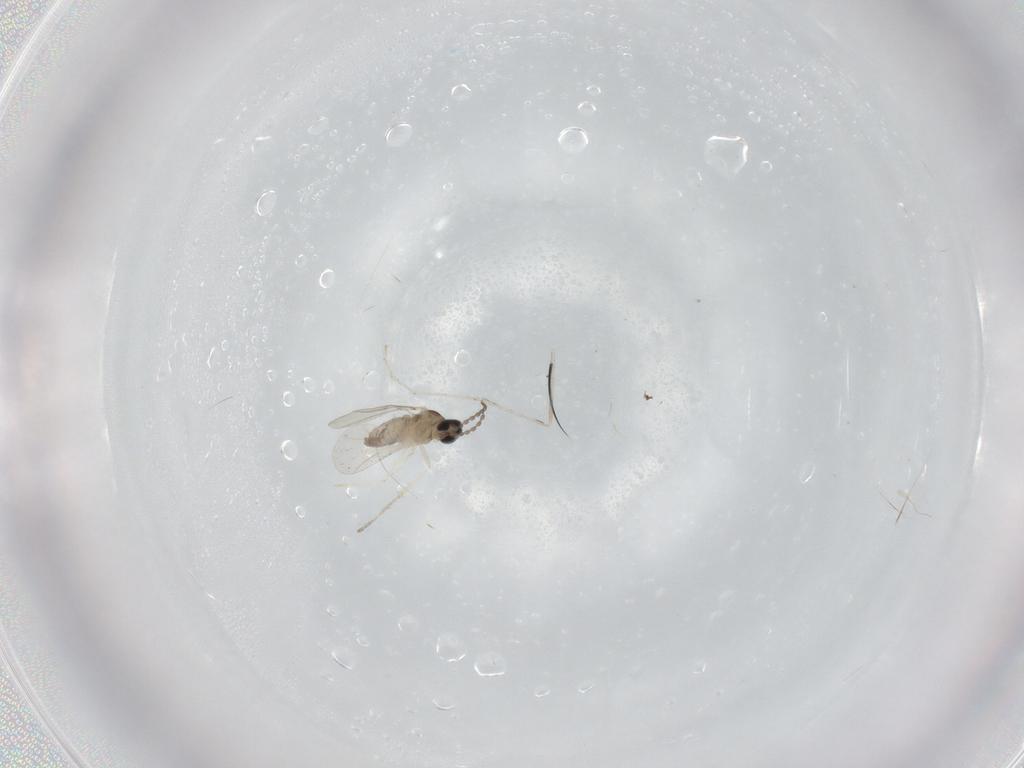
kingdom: Animalia
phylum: Arthropoda
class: Insecta
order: Diptera
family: Cecidomyiidae
